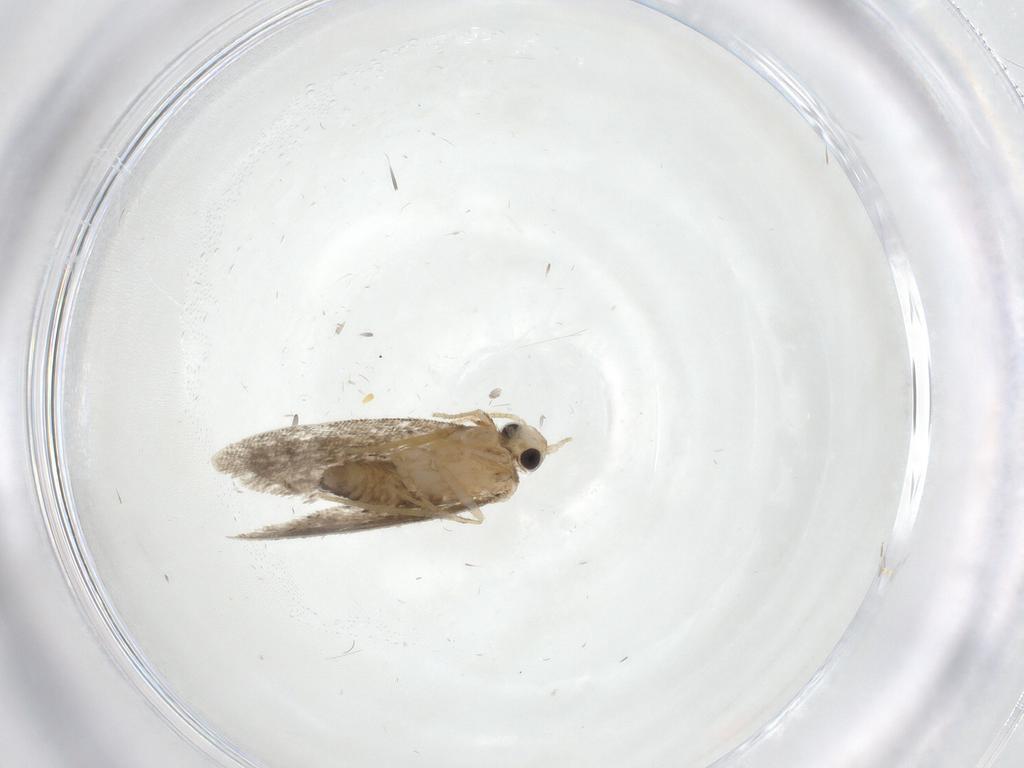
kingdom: Animalia
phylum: Arthropoda
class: Insecta
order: Lepidoptera
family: Psychidae
